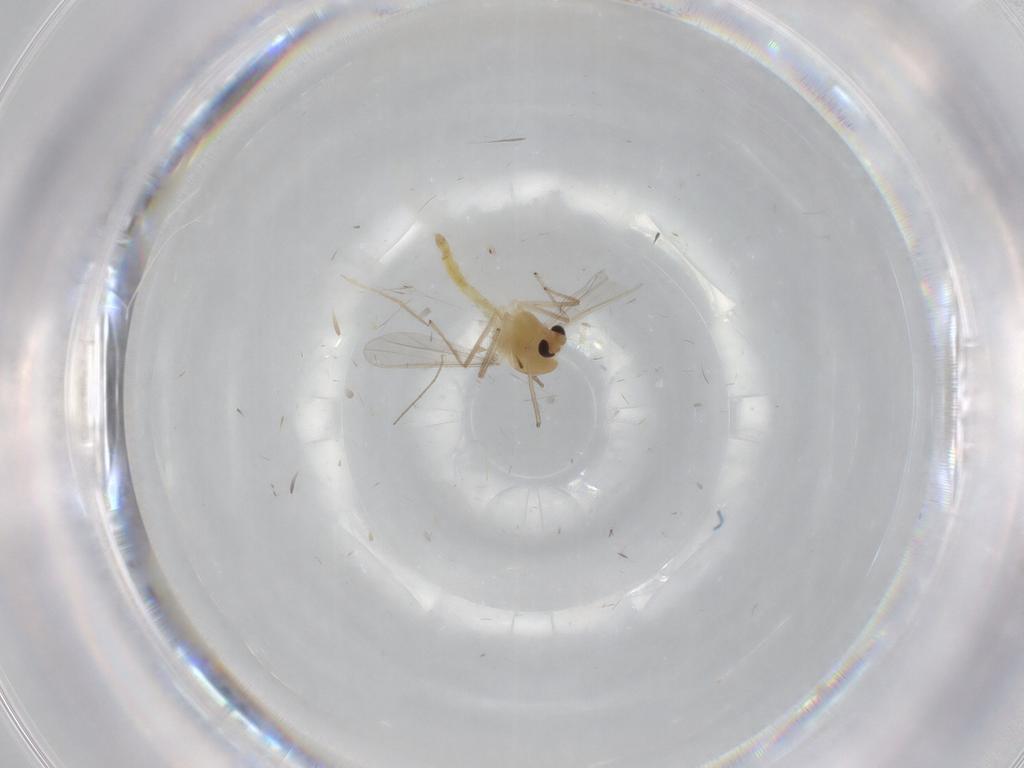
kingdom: Animalia
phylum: Arthropoda
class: Insecta
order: Diptera
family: Chironomidae
